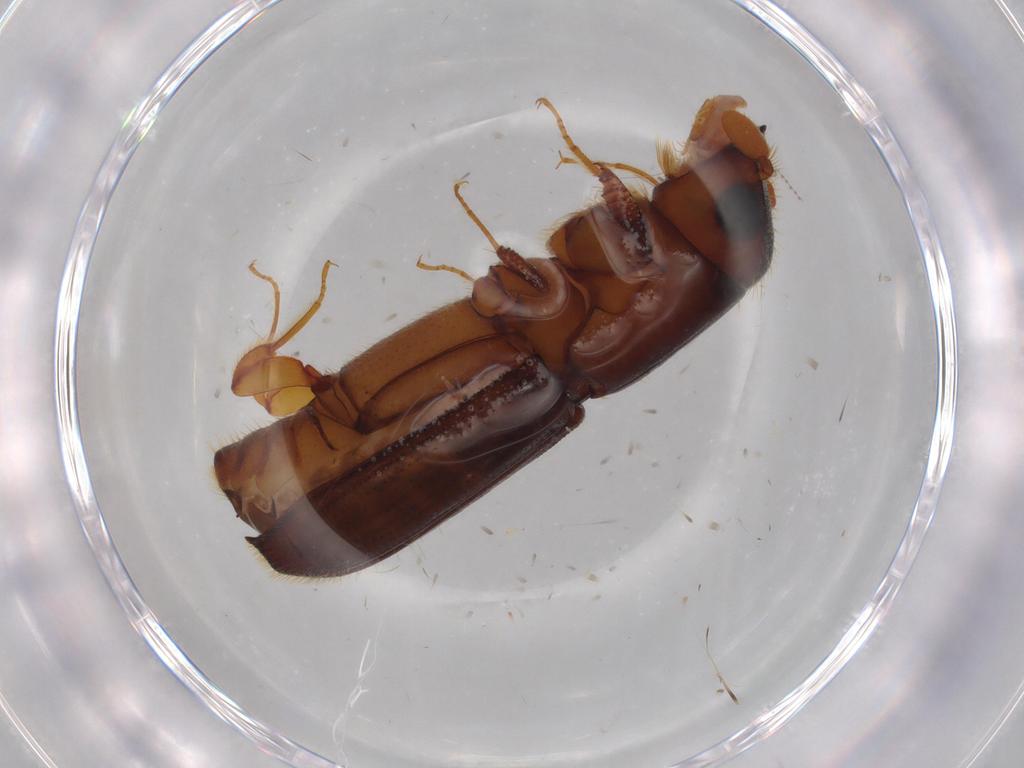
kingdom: Animalia
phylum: Arthropoda
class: Insecta
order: Coleoptera
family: Curculionidae
